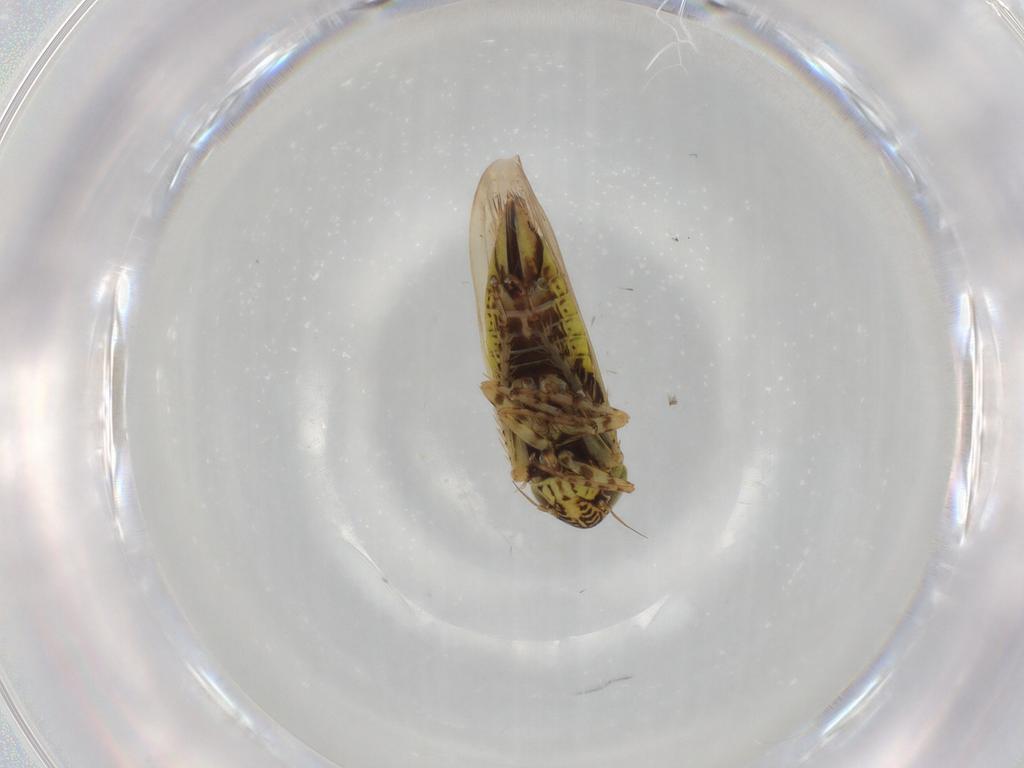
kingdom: Animalia
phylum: Arthropoda
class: Insecta
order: Hemiptera
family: Cicadellidae
